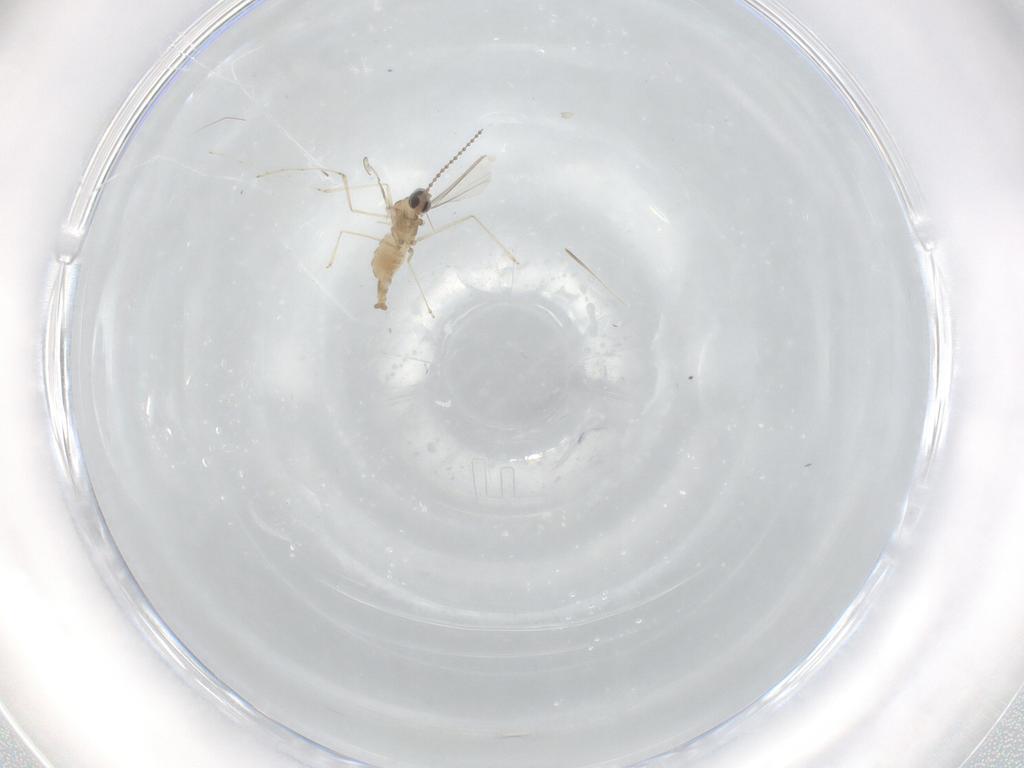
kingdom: Animalia
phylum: Arthropoda
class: Insecta
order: Diptera
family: Cecidomyiidae
